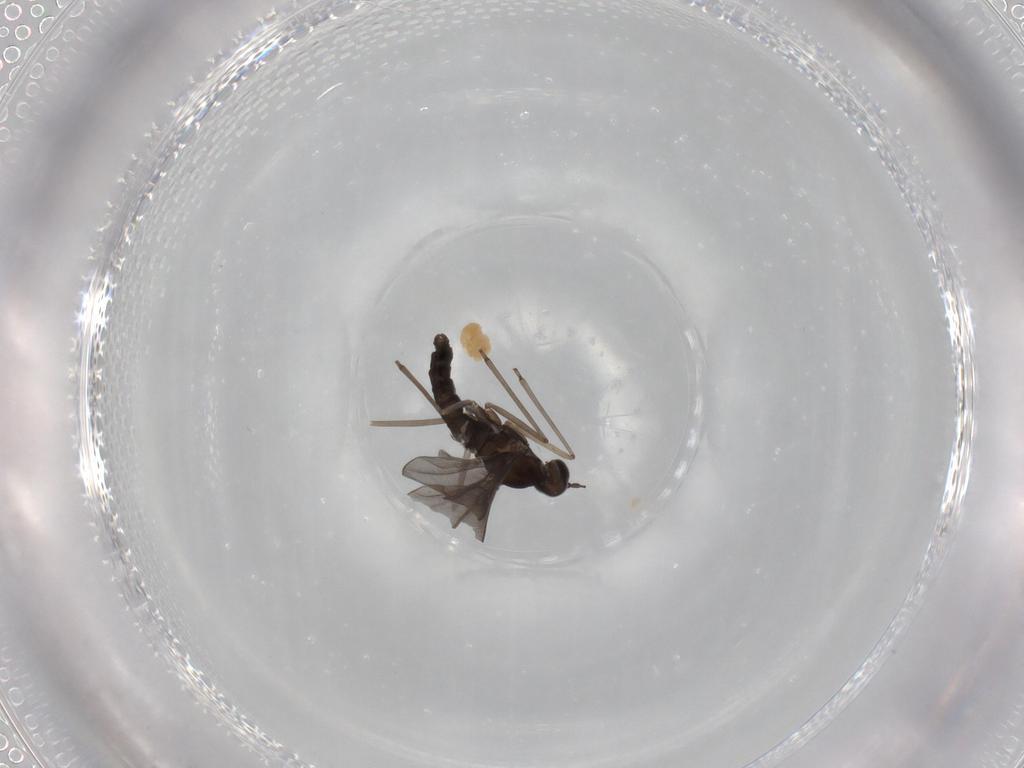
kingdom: Animalia
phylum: Arthropoda
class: Insecta
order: Diptera
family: Cecidomyiidae
